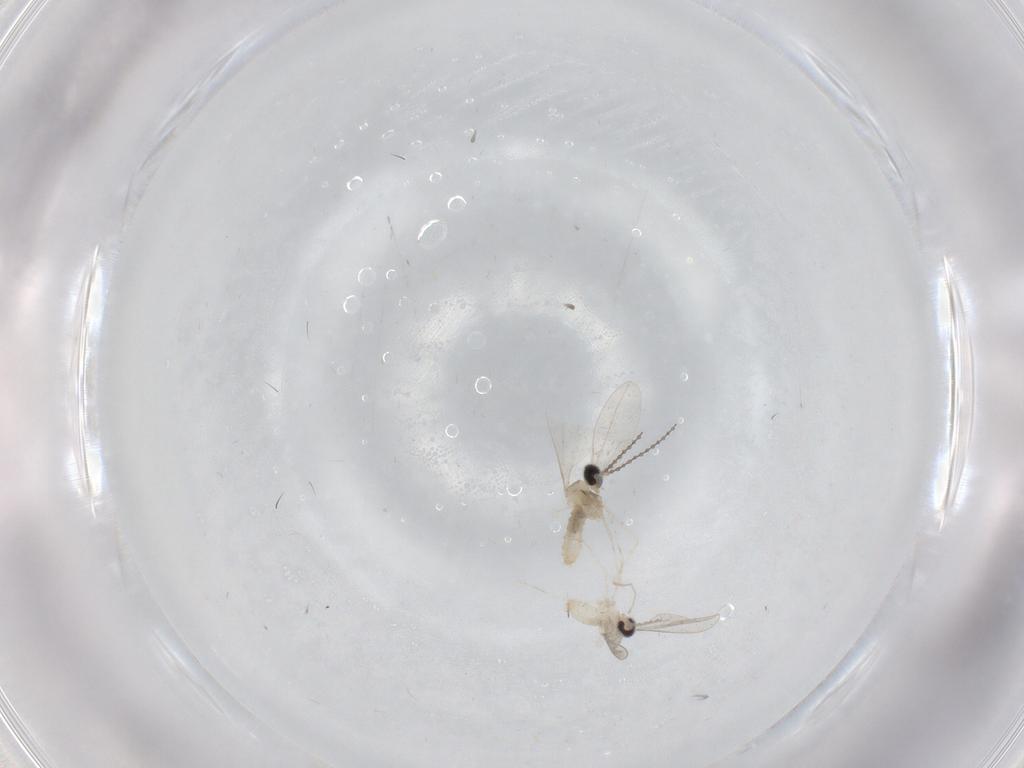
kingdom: Animalia
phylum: Arthropoda
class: Insecta
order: Diptera
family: Cecidomyiidae
